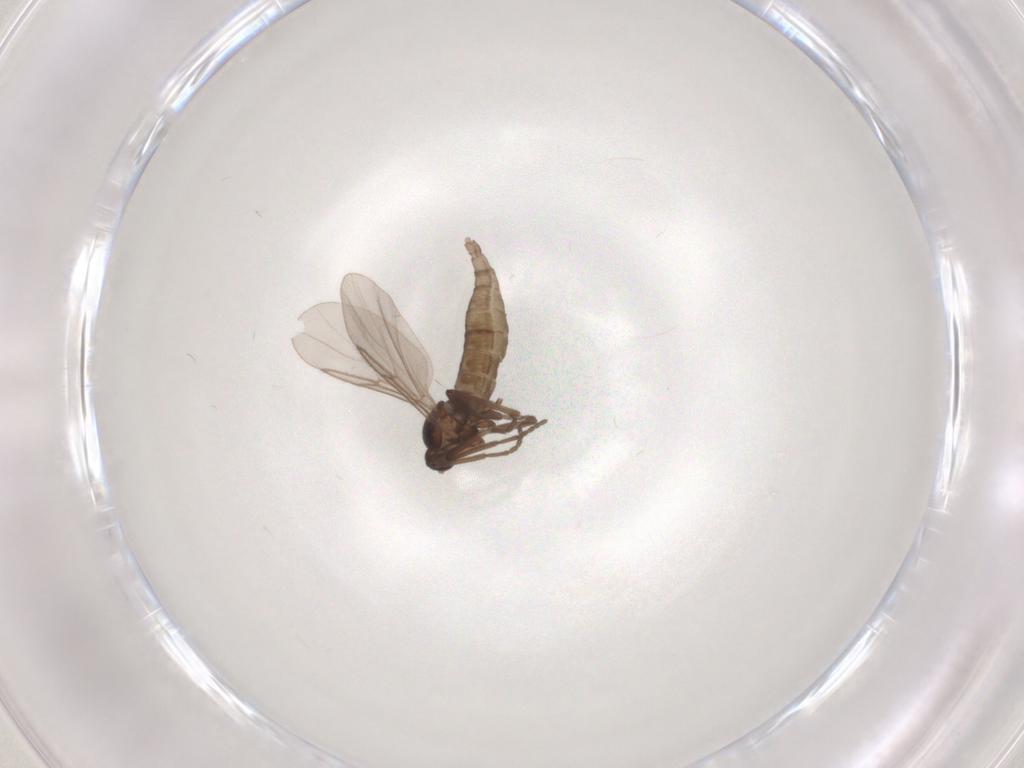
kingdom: Animalia
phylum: Arthropoda
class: Insecta
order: Diptera
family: Cecidomyiidae
